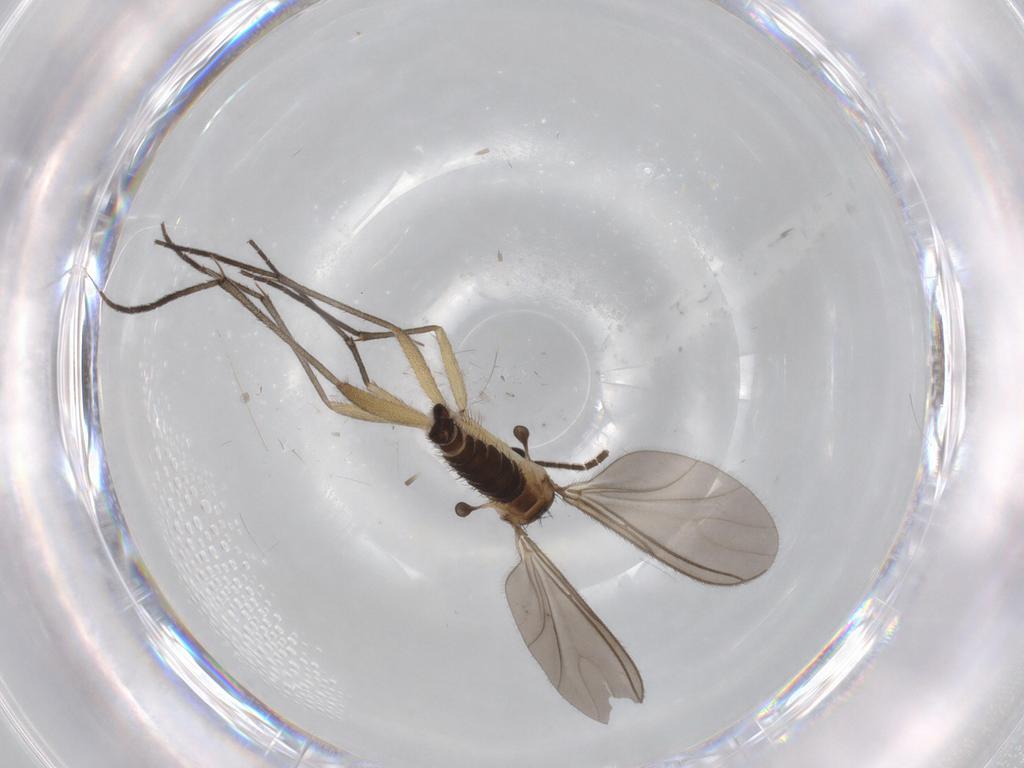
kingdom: Animalia
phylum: Arthropoda
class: Insecta
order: Diptera
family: Sciaridae
